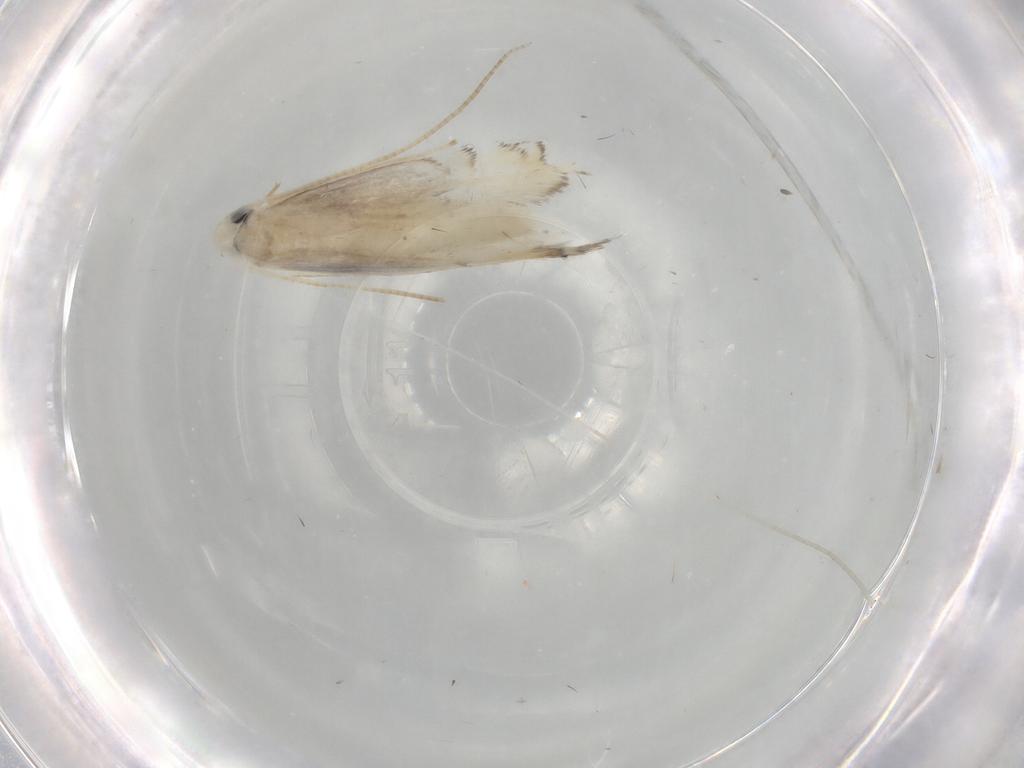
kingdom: Animalia
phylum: Arthropoda
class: Insecta
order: Lepidoptera
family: Gracillariidae
